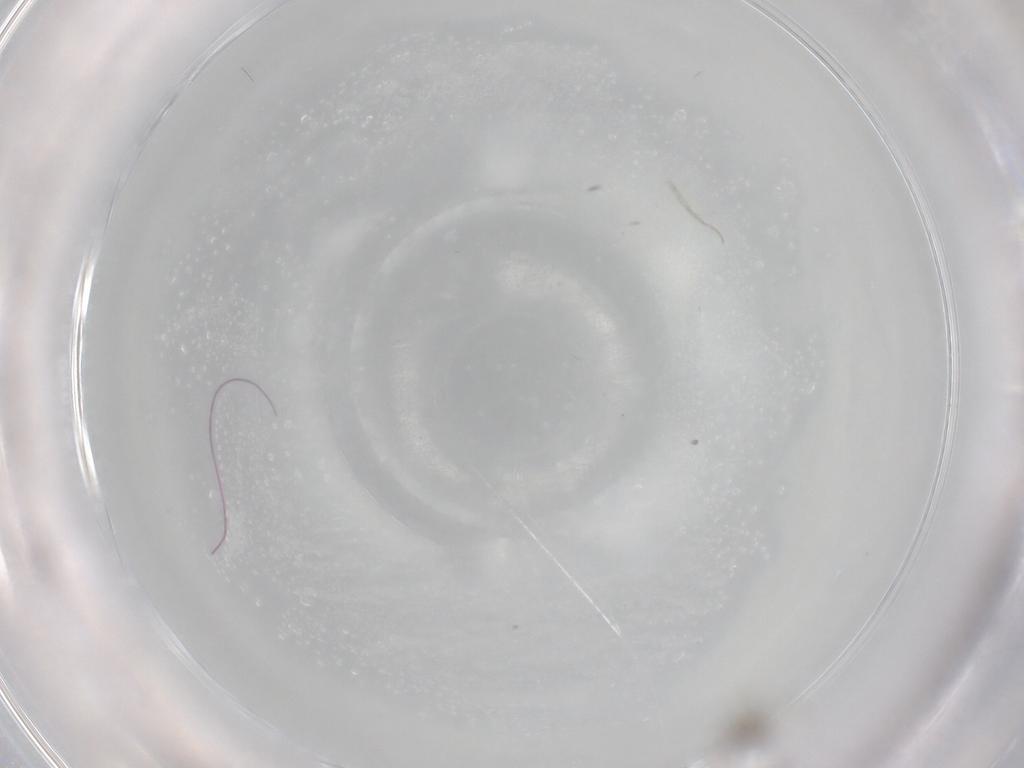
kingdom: Animalia
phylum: Arthropoda
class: Insecta
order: Diptera
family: Cecidomyiidae
